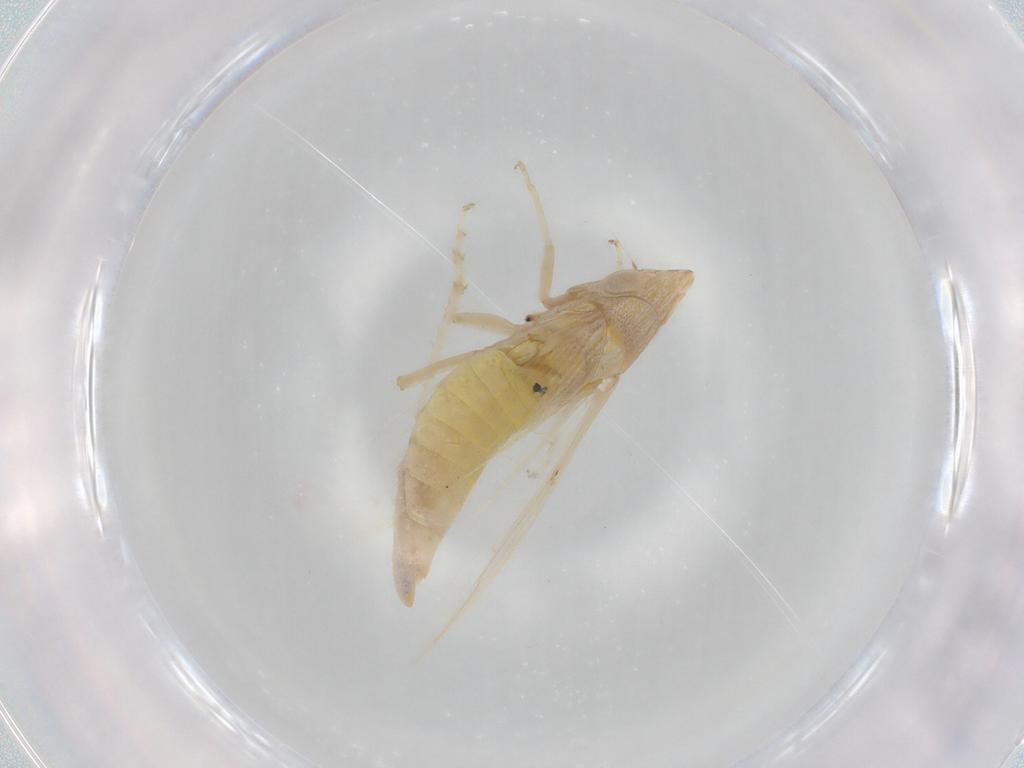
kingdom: Animalia
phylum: Arthropoda
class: Insecta
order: Hemiptera
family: Cicadellidae
